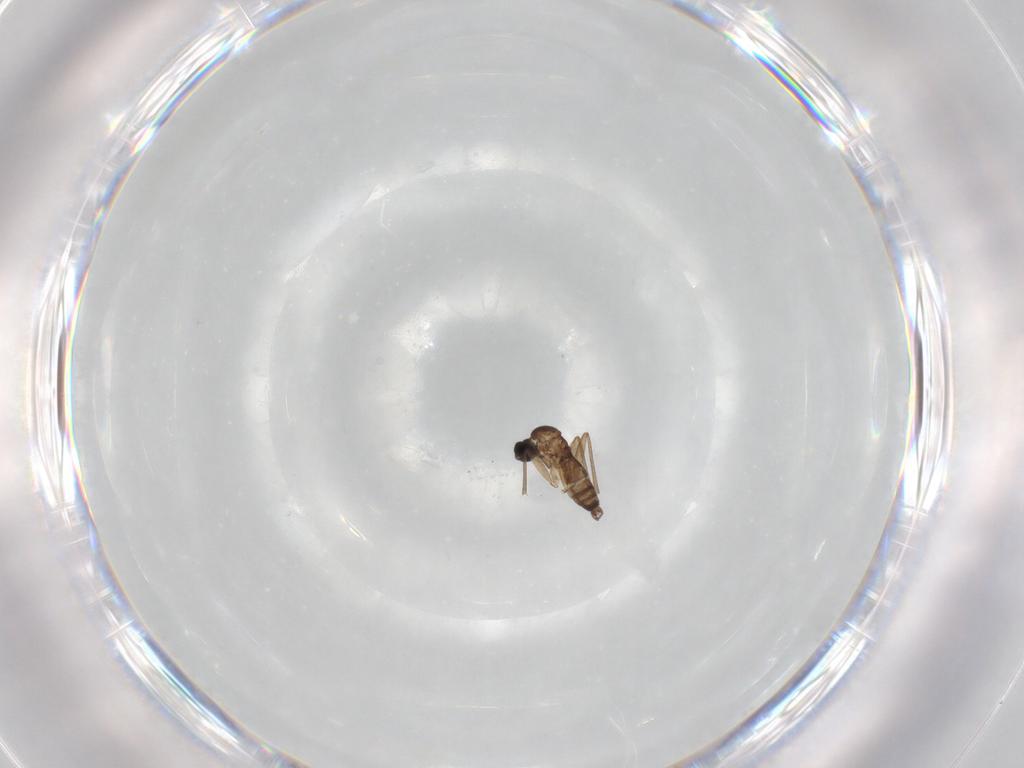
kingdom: Animalia
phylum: Arthropoda
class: Insecta
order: Diptera
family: Sciaridae
